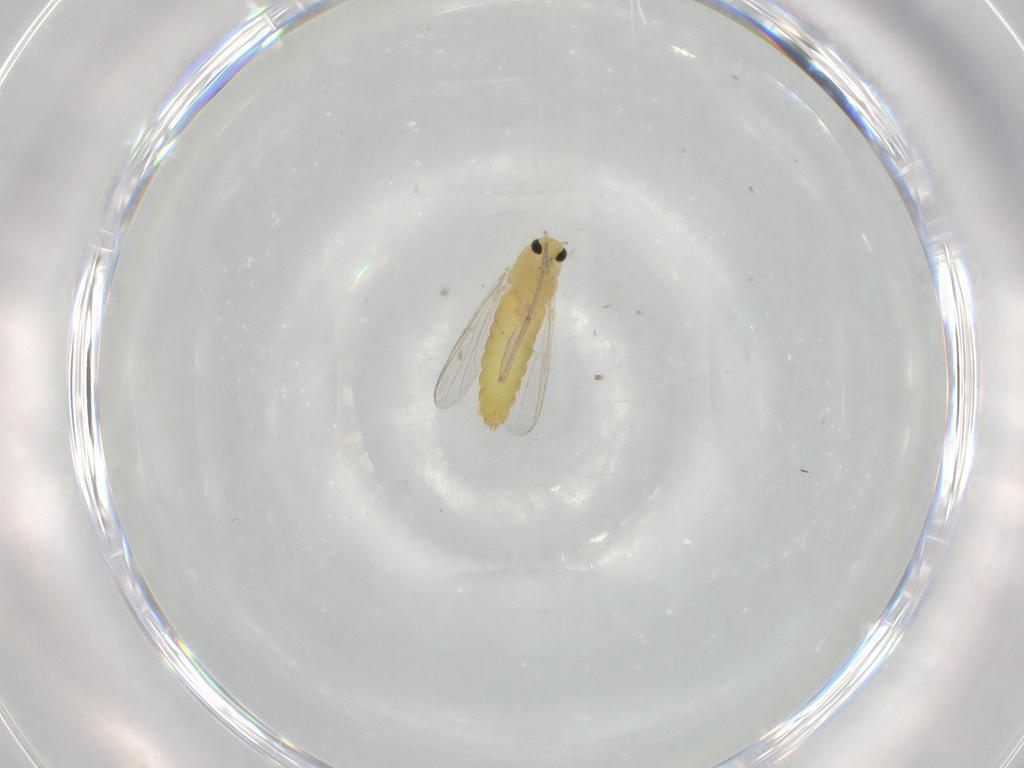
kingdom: Animalia
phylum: Arthropoda
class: Insecta
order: Diptera
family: Chironomidae
